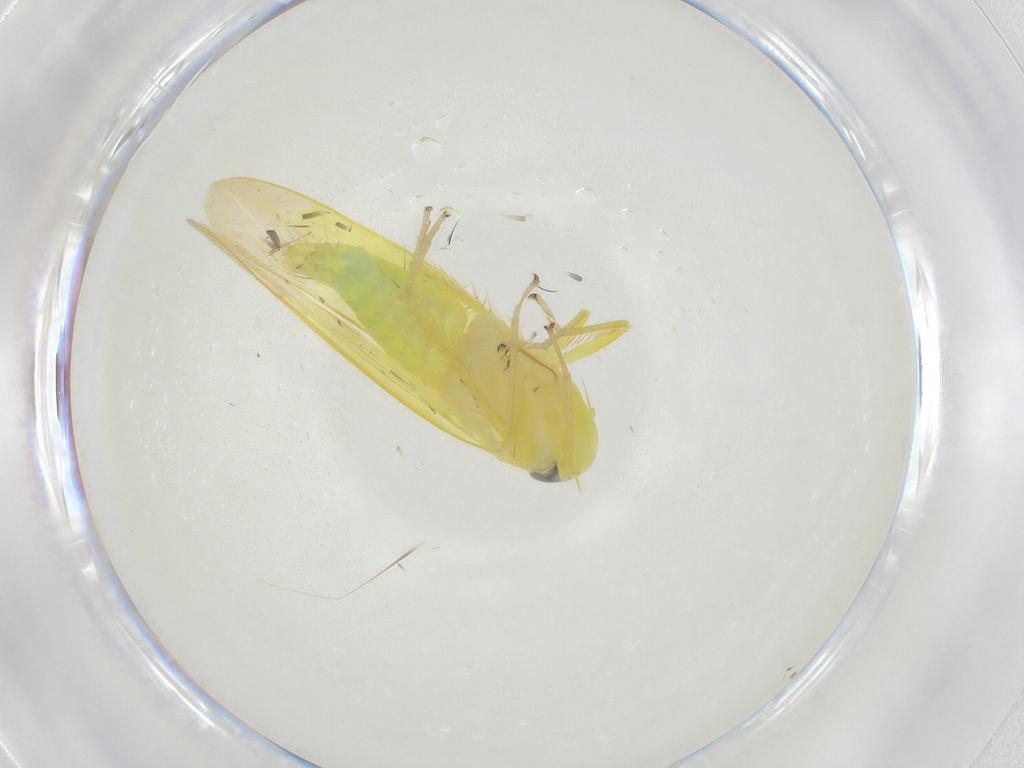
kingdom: Animalia
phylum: Arthropoda
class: Insecta
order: Hemiptera
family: Cicadellidae
